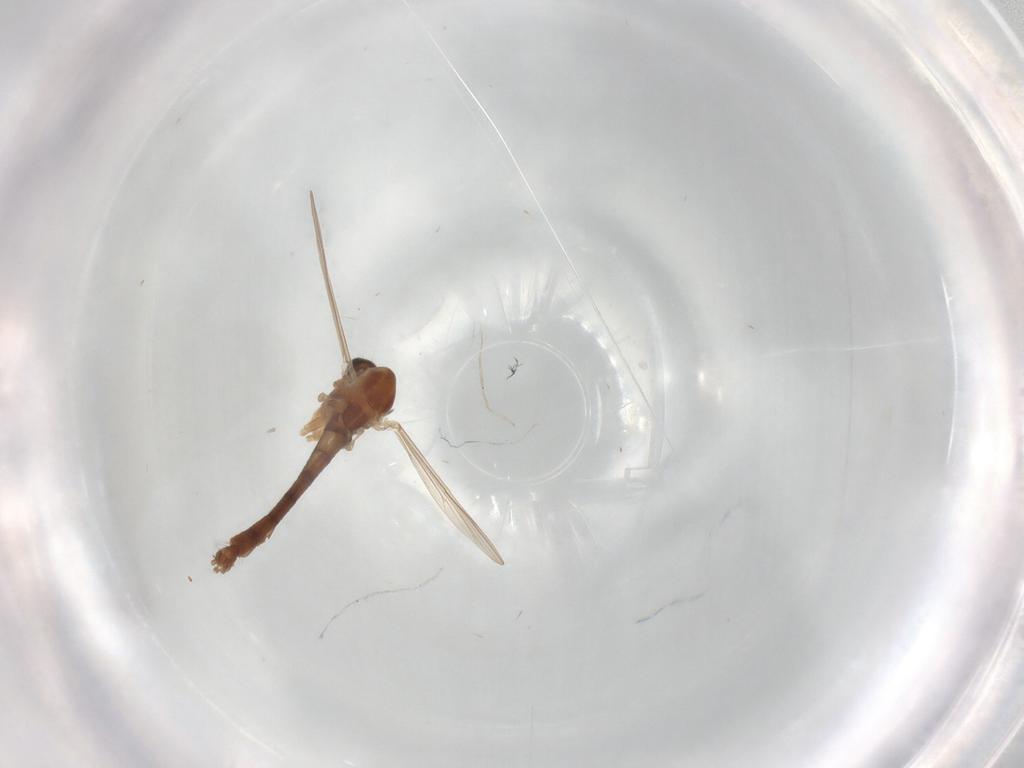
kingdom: Animalia
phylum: Arthropoda
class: Insecta
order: Diptera
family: Chironomidae
